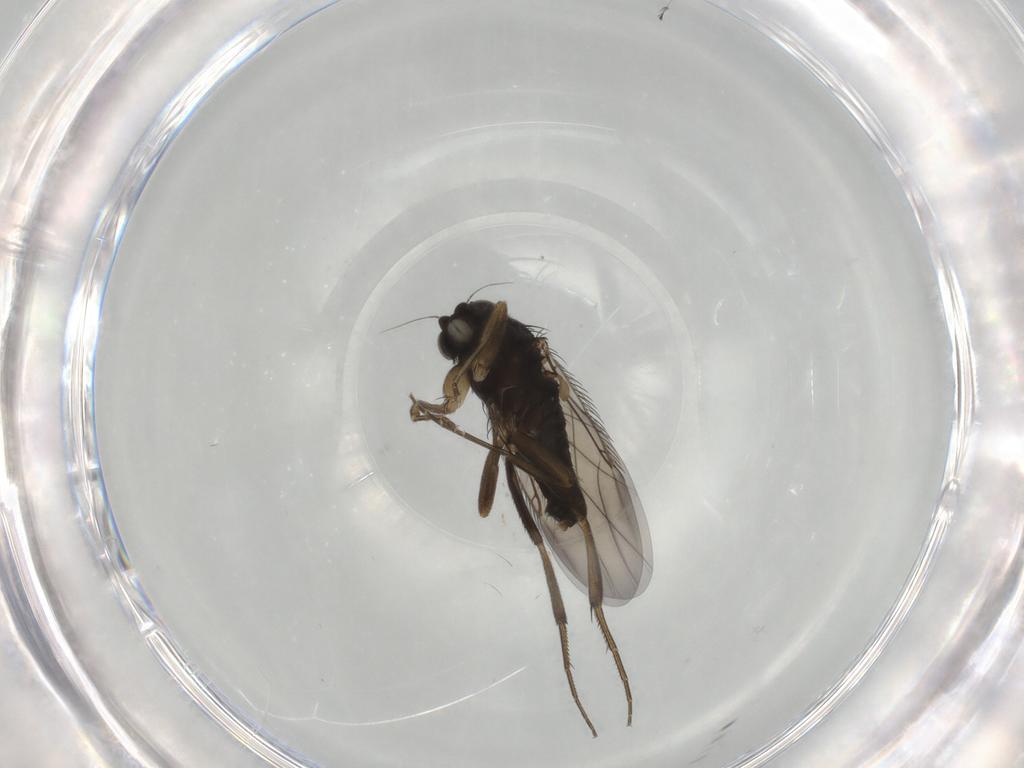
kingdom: Animalia
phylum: Arthropoda
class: Insecta
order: Diptera
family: Phoridae
